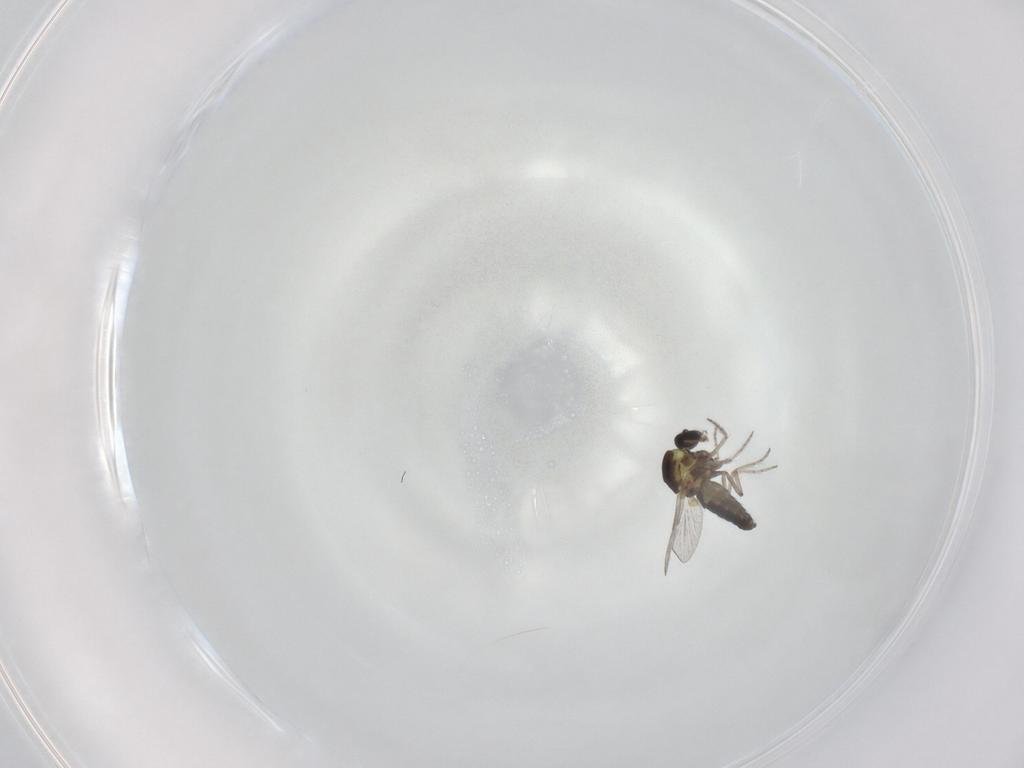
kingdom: Animalia
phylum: Arthropoda
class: Insecta
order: Diptera
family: Ceratopogonidae
